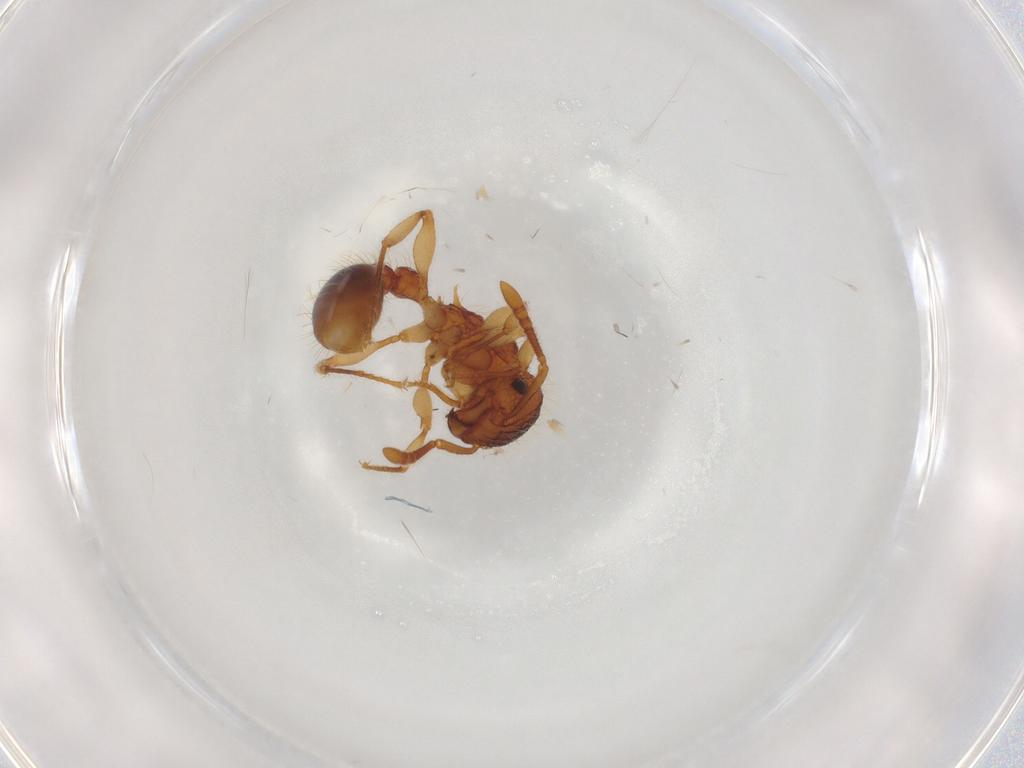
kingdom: Animalia
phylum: Arthropoda
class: Insecta
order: Hymenoptera
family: Formicidae
